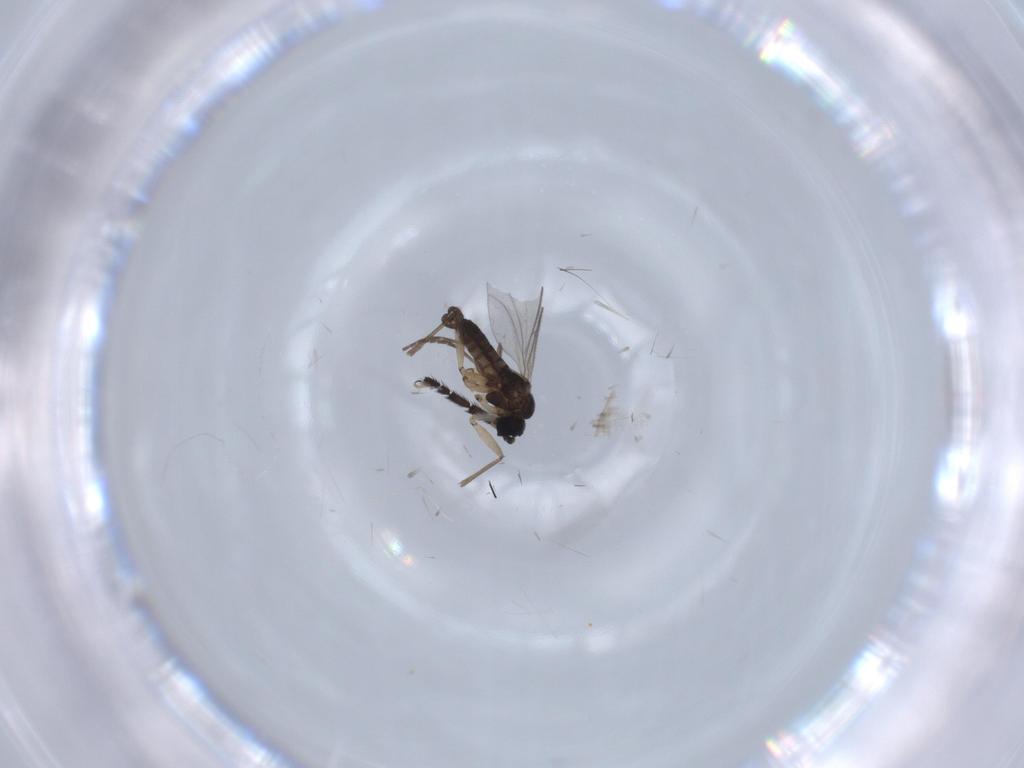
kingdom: Animalia
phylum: Arthropoda
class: Insecta
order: Diptera
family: Brachystomatidae
